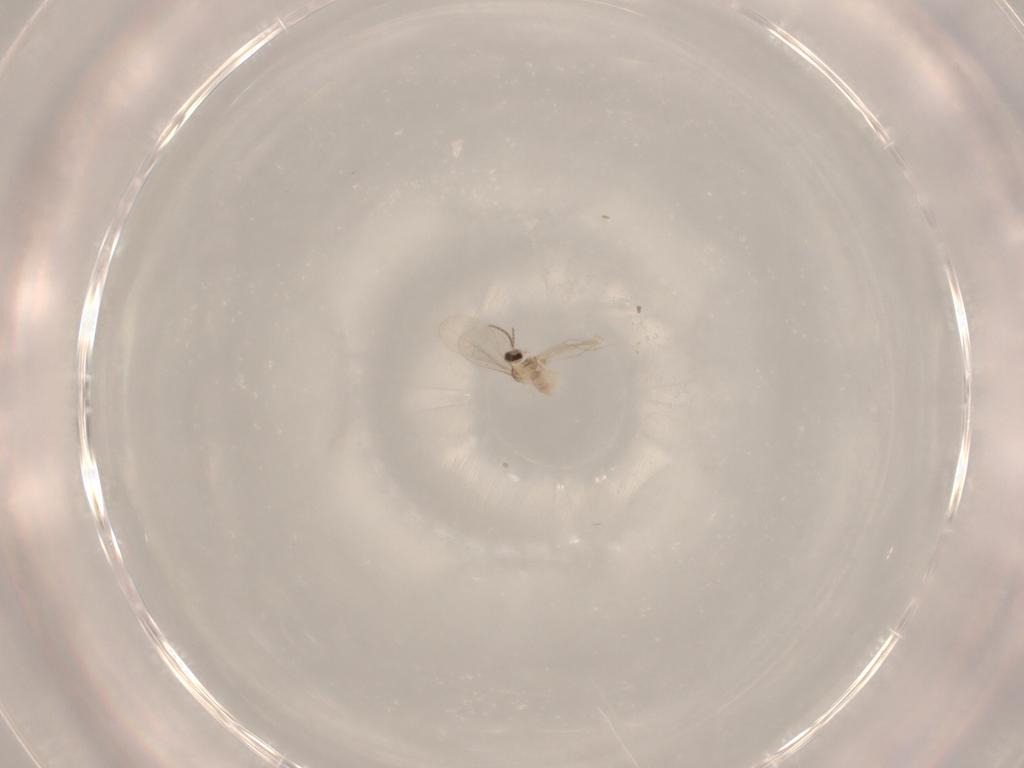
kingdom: Animalia
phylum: Arthropoda
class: Insecta
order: Diptera
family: Cecidomyiidae
